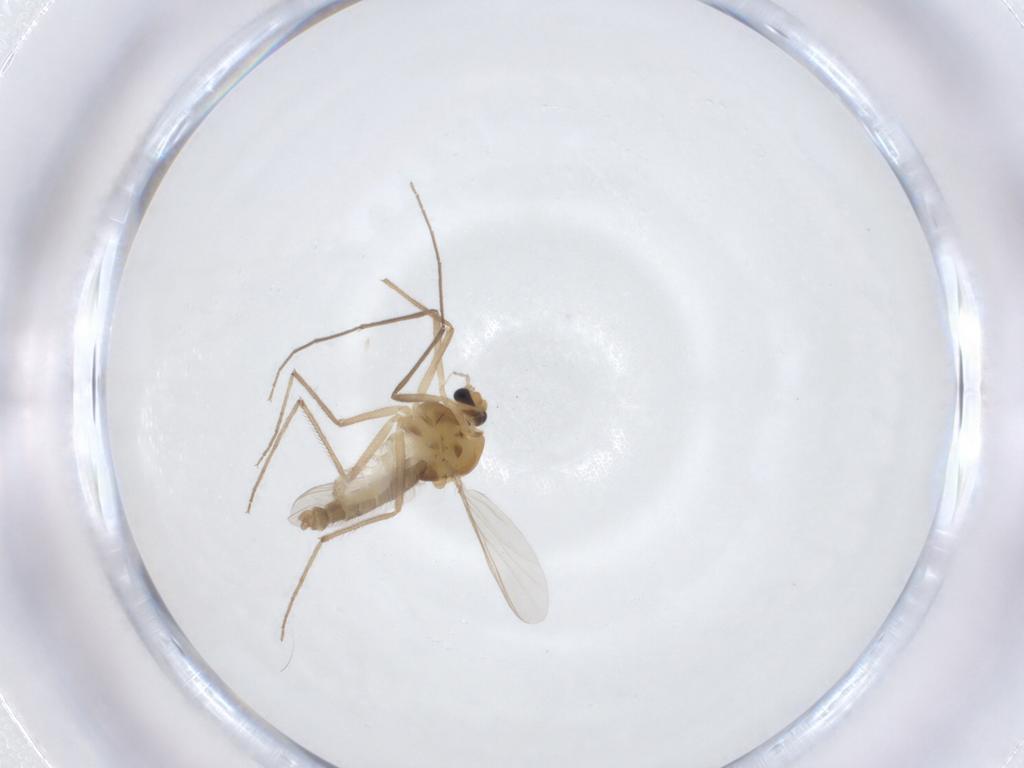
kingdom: Animalia
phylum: Arthropoda
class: Insecta
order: Diptera
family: Chironomidae
